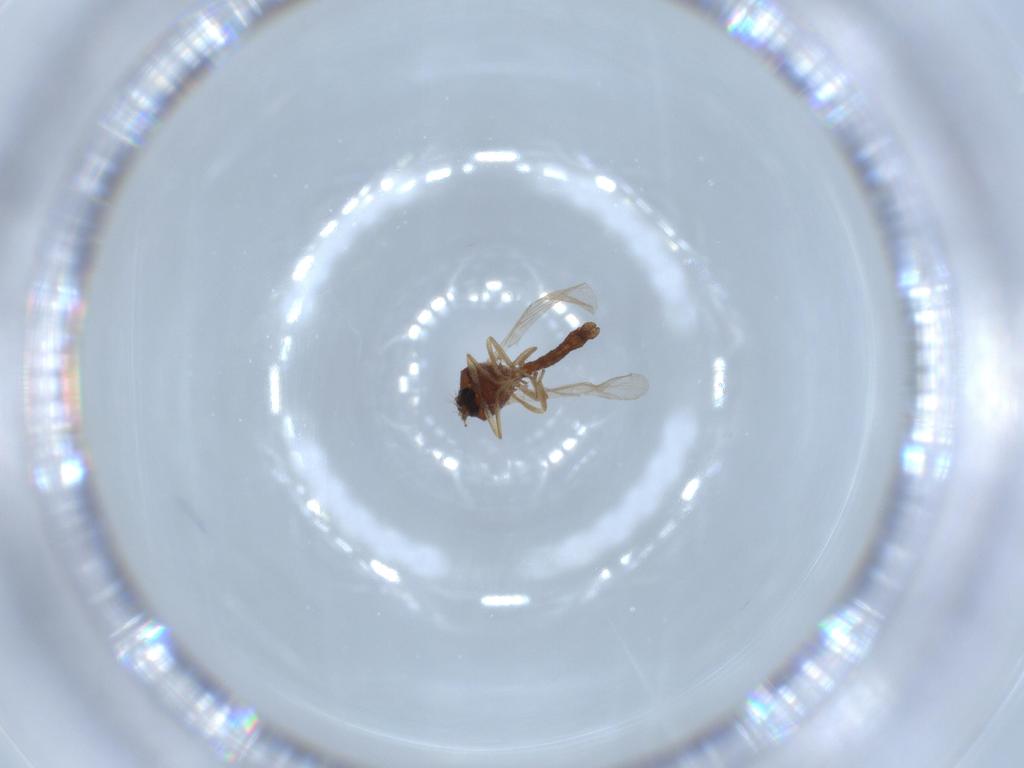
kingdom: Animalia
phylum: Arthropoda
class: Insecta
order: Diptera
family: Ceratopogonidae
